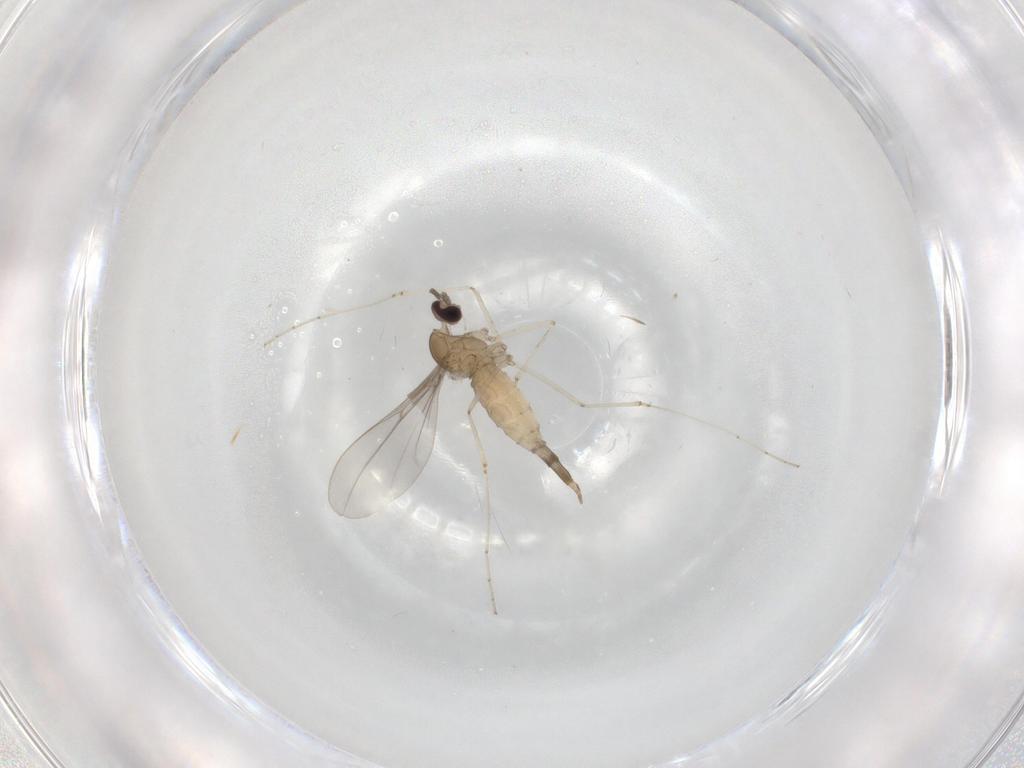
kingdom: Animalia
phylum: Arthropoda
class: Insecta
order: Diptera
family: Cecidomyiidae
